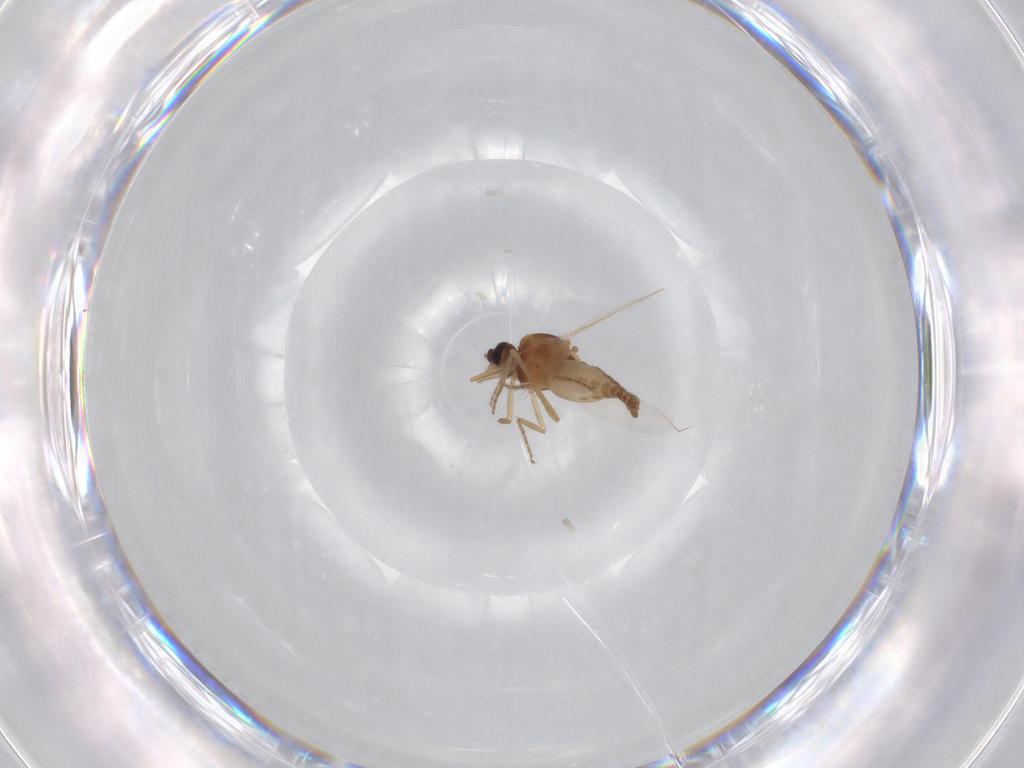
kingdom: Animalia
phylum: Arthropoda
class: Insecta
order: Diptera
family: Ceratopogonidae
